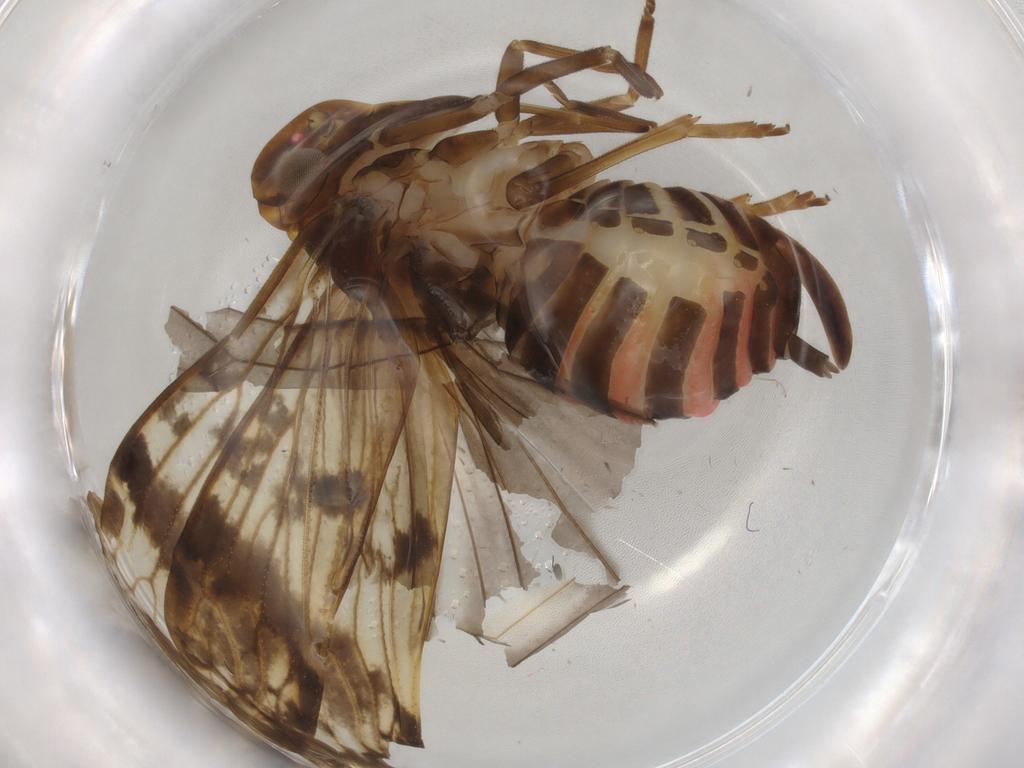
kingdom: Animalia
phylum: Arthropoda
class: Insecta
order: Hemiptera
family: Cixiidae
